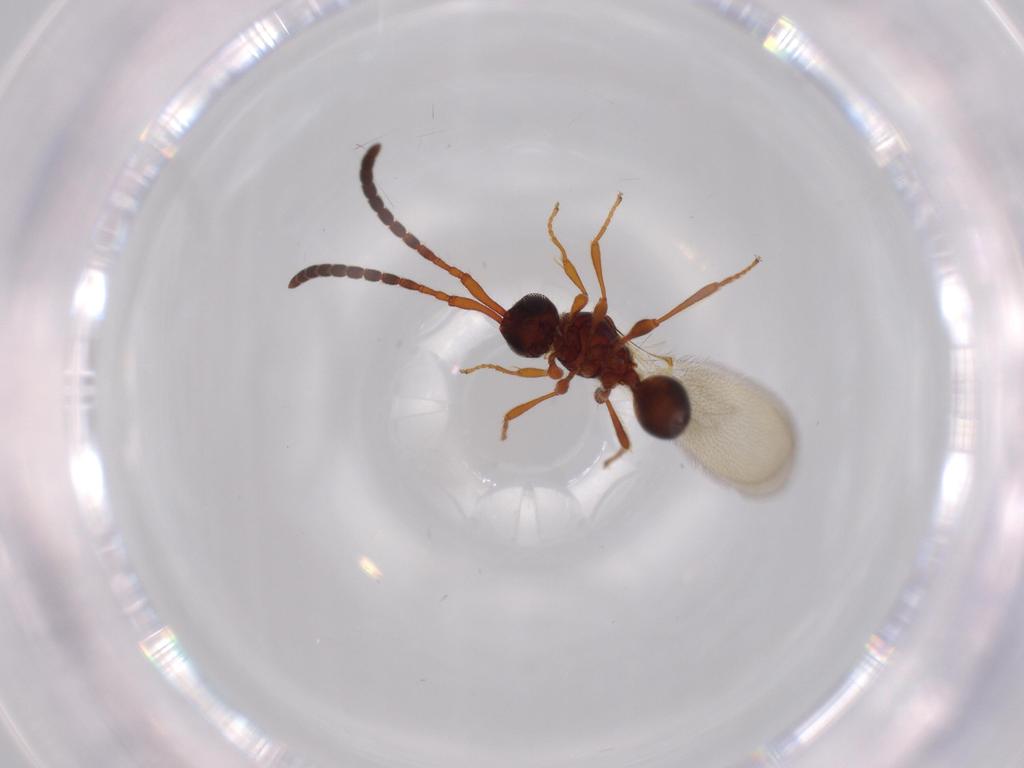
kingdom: Animalia
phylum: Arthropoda
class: Insecta
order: Hymenoptera
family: Diapriidae
